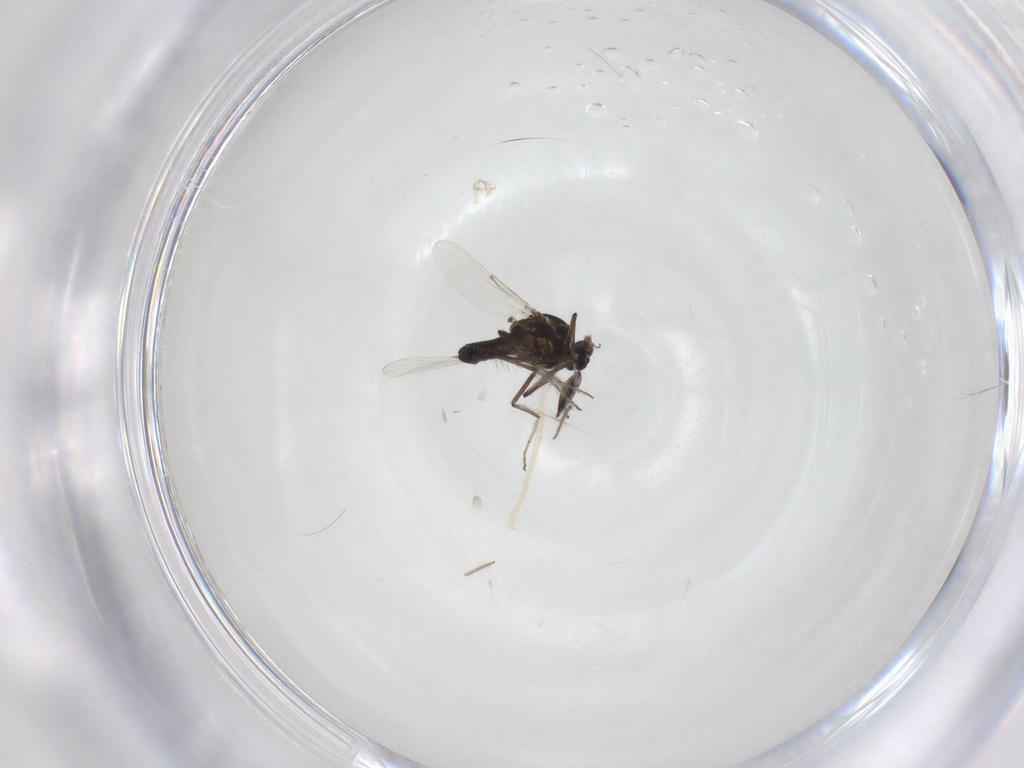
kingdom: Animalia
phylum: Arthropoda
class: Insecta
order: Diptera
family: Ceratopogonidae
